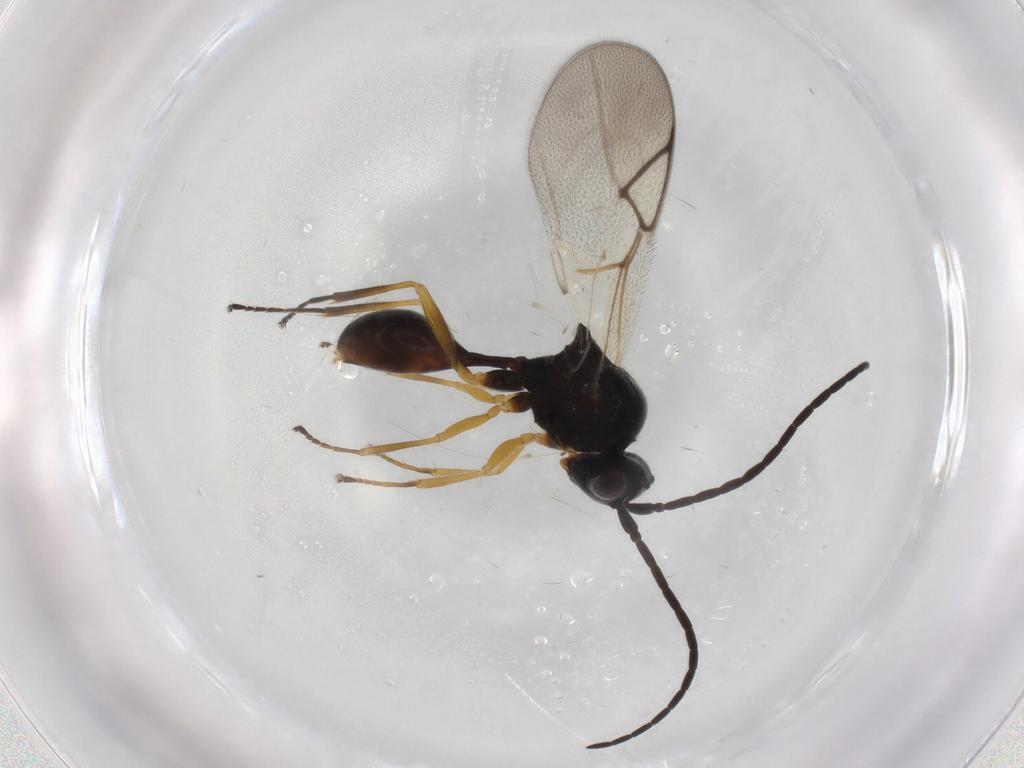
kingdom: Animalia
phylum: Arthropoda
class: Insecta
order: Hymenoptera
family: Figitidae
